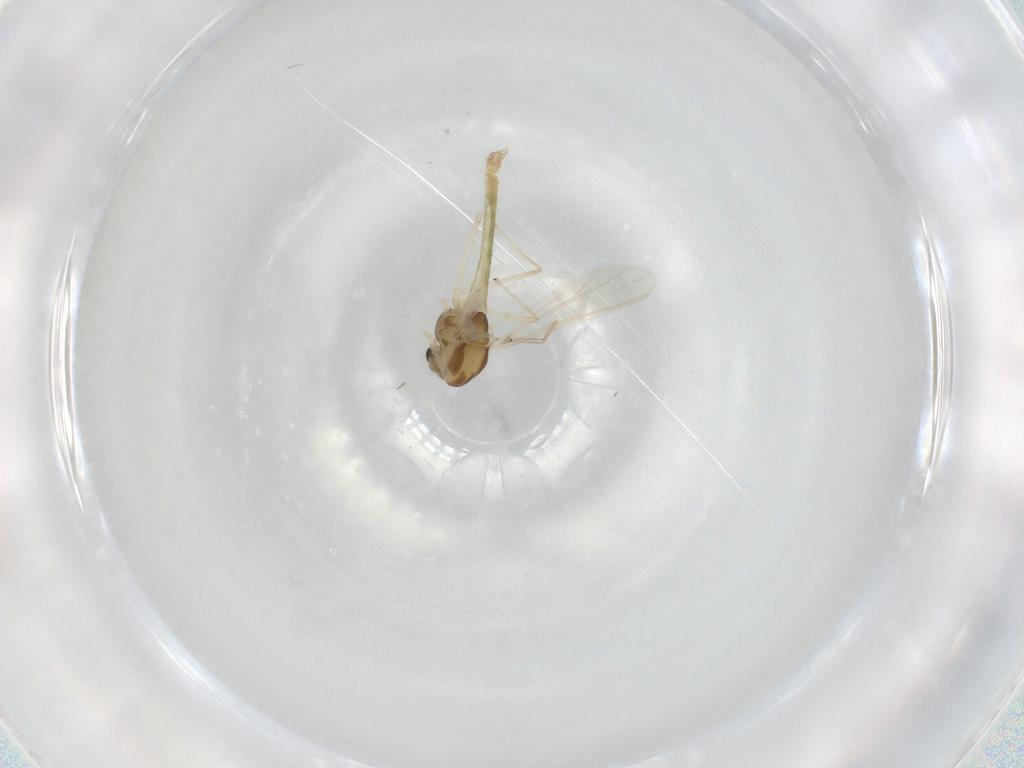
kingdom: Animalia
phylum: Arthropoda
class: Insecta
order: Diptera
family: Chironomidae
